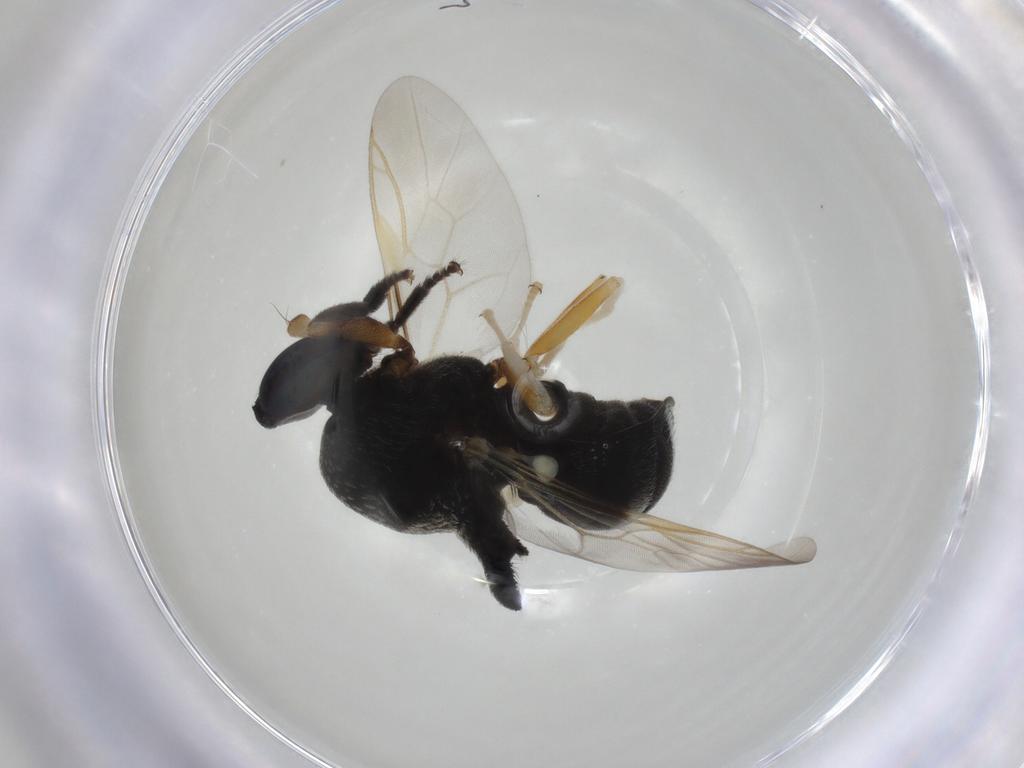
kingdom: Animalia
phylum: Arthropoda
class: Insecta
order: Diptera
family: Stratiomyidae
